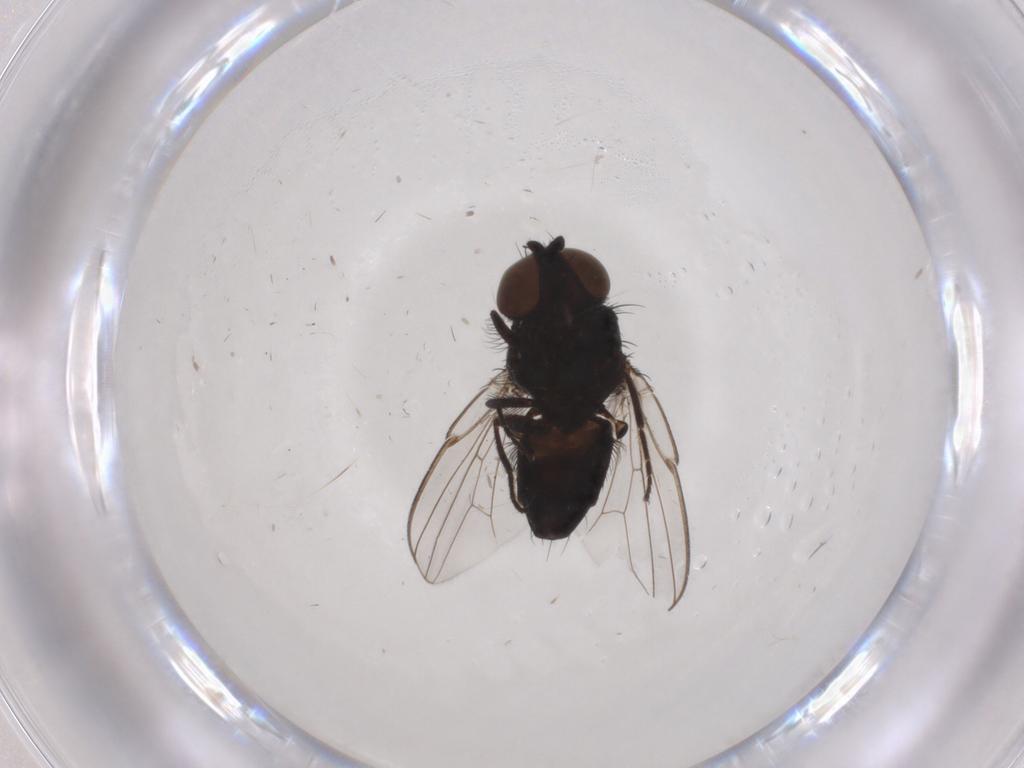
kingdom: Animalia
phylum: Arthropoda
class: Insecta
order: Diptera
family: Chloropidae
